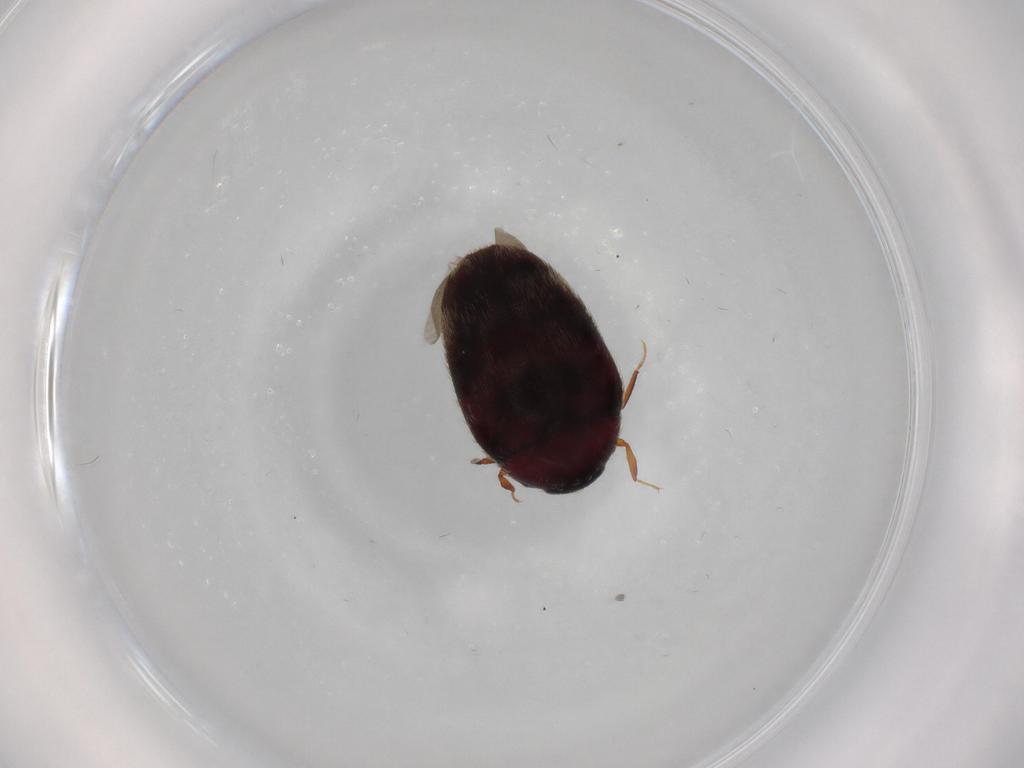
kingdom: Animalia
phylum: Arthropoda
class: Insecta
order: Coleoptera
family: Dermestidae
